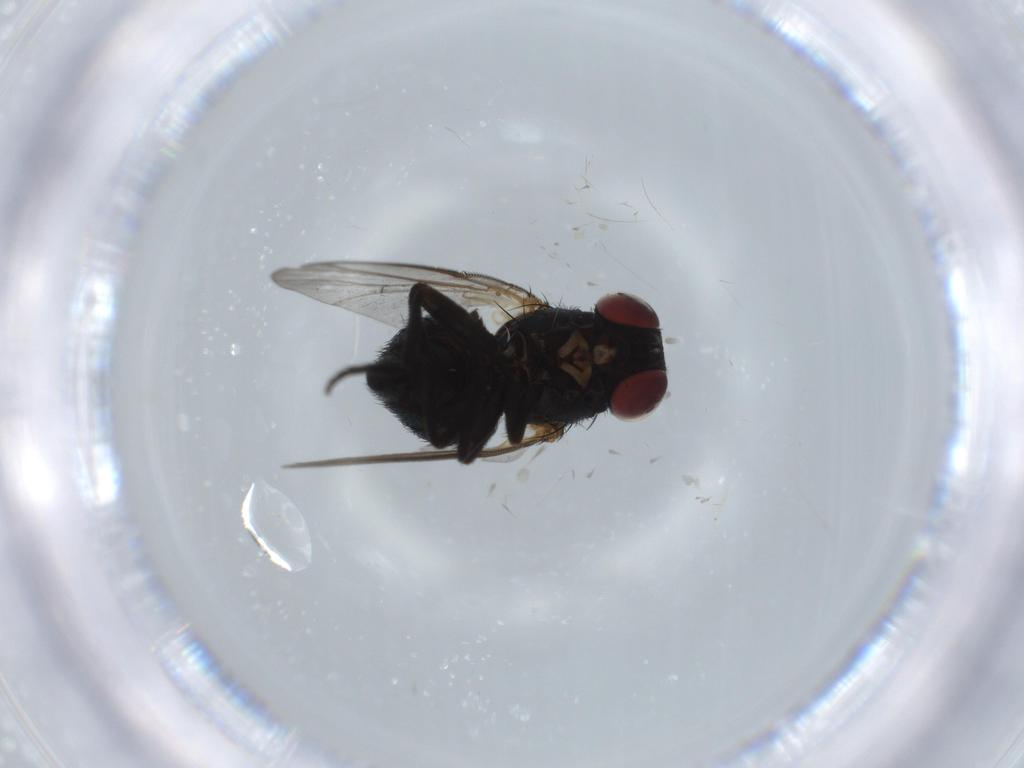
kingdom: Animalia
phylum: Arthropoda
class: Insecta
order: Diptera
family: Agromyzidae
